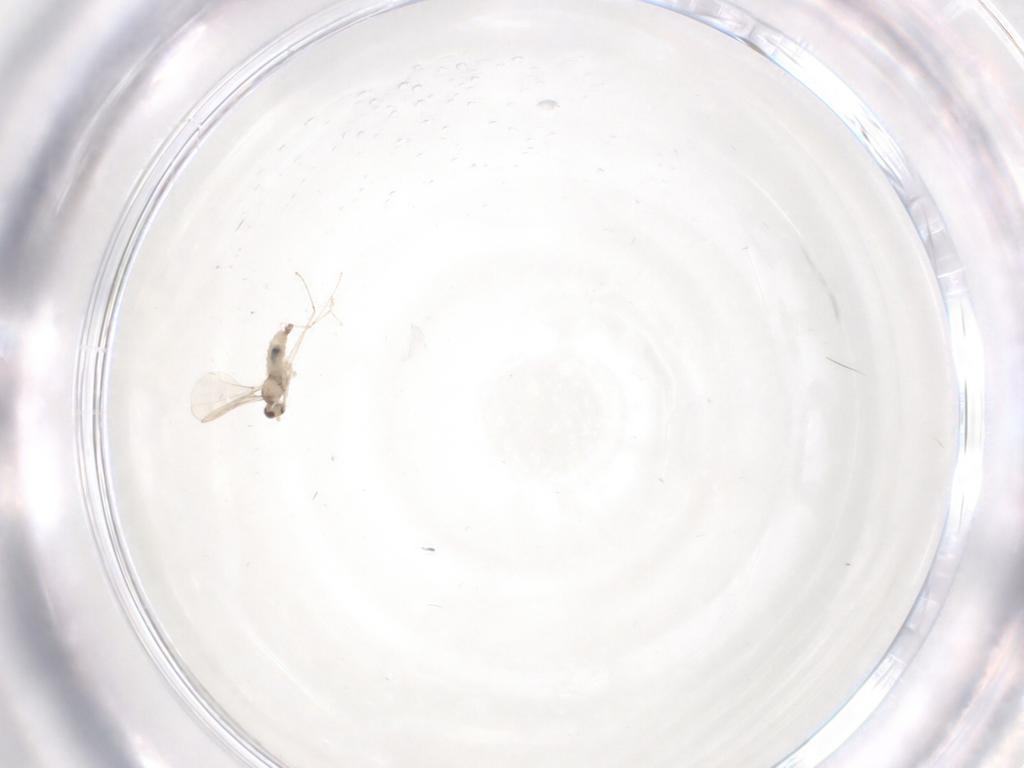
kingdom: Animalia
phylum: Arthropoda
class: Insecta
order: Diptera
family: Cecidomyiidae
